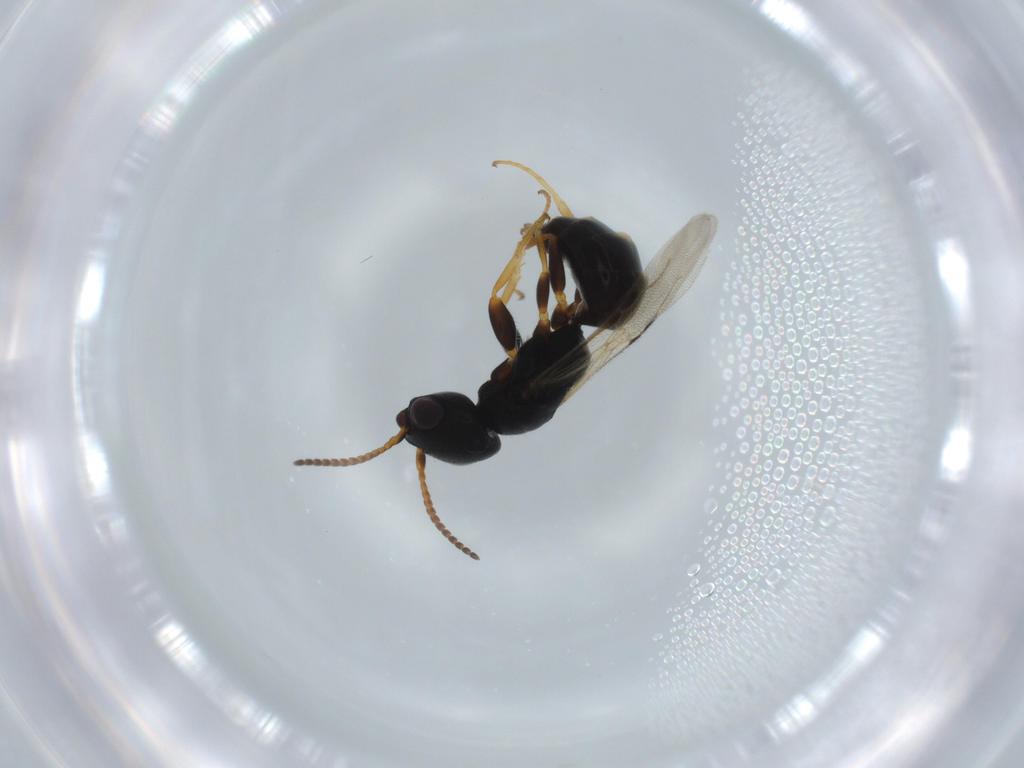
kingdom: Animalia
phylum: Arthropoda
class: Insecta
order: Hymenoptera
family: Bethylidae
